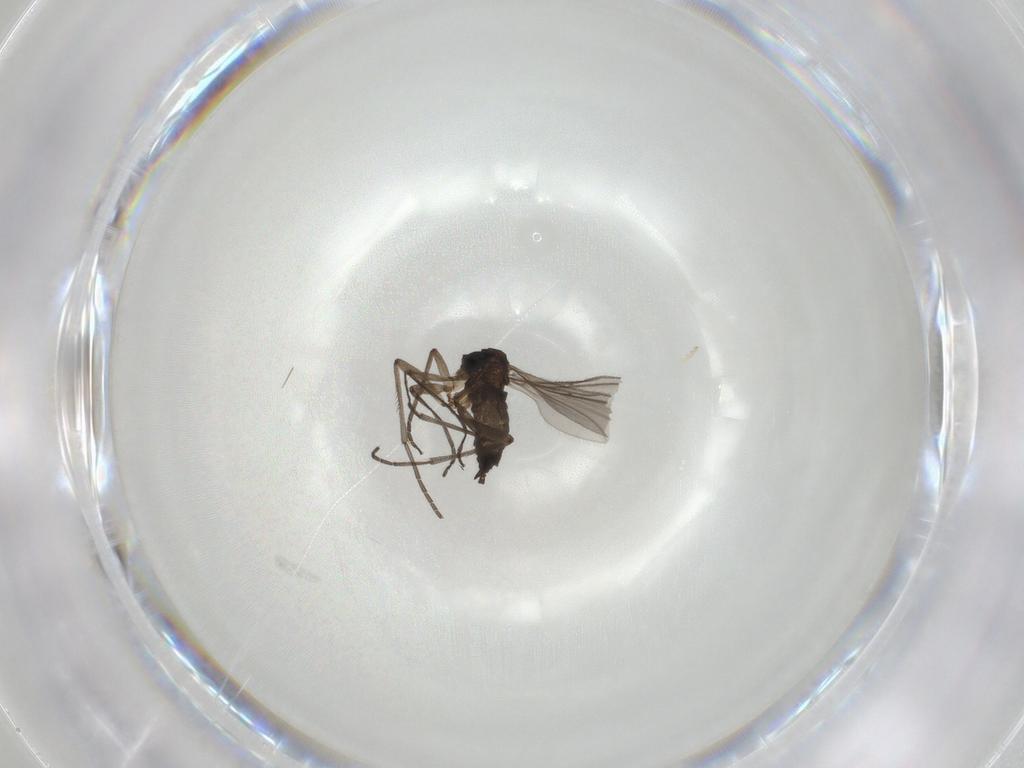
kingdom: Animalia
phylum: Arthropoda
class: Insecta
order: Diptera
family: Sciaridae
